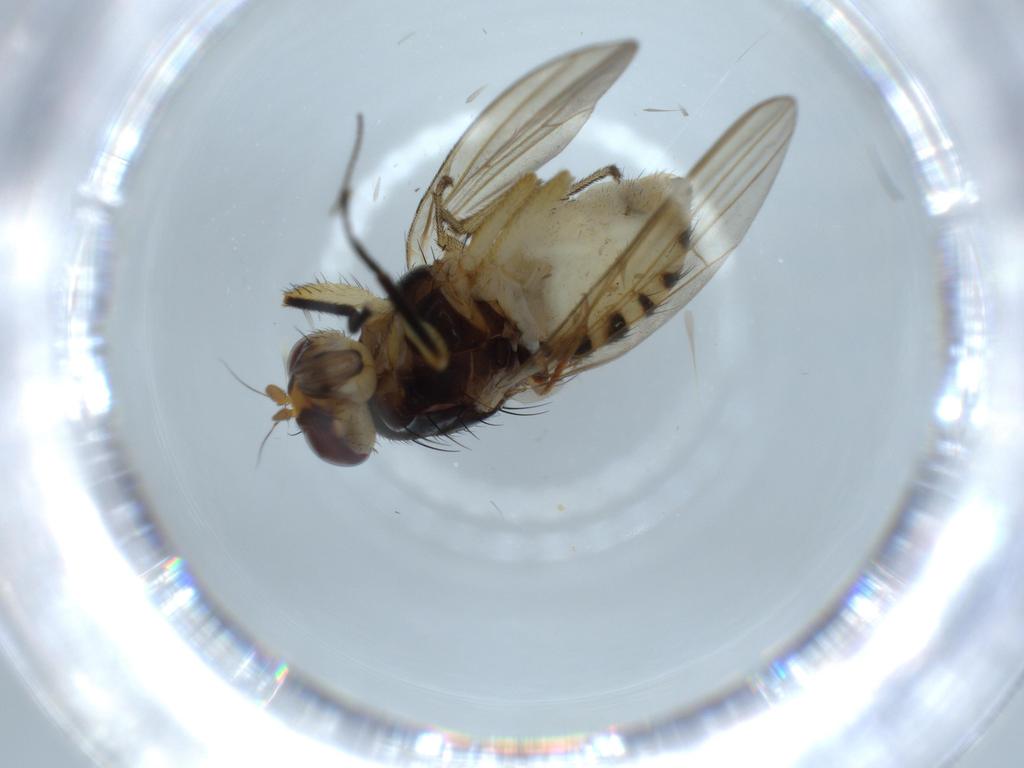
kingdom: Animalia
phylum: Arthropoda
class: Insecta
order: Diptera
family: Lauxaniidae
